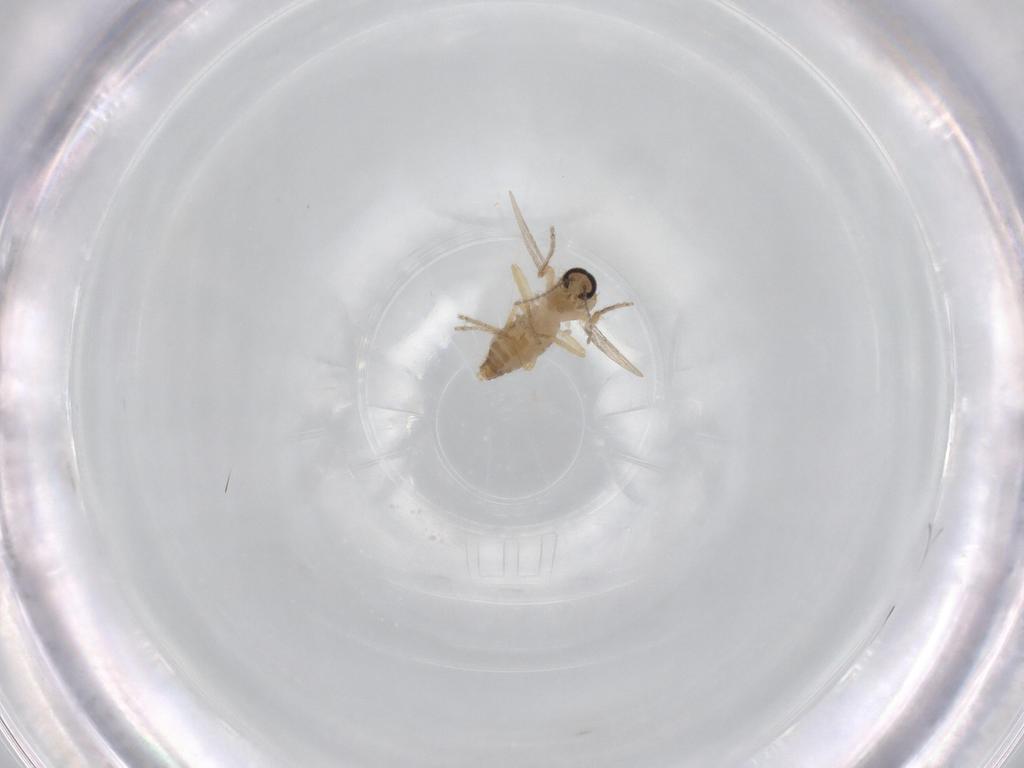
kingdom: Animalia
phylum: Arthropoda
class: Insecta
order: Diptera
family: Ceratopogonidae
